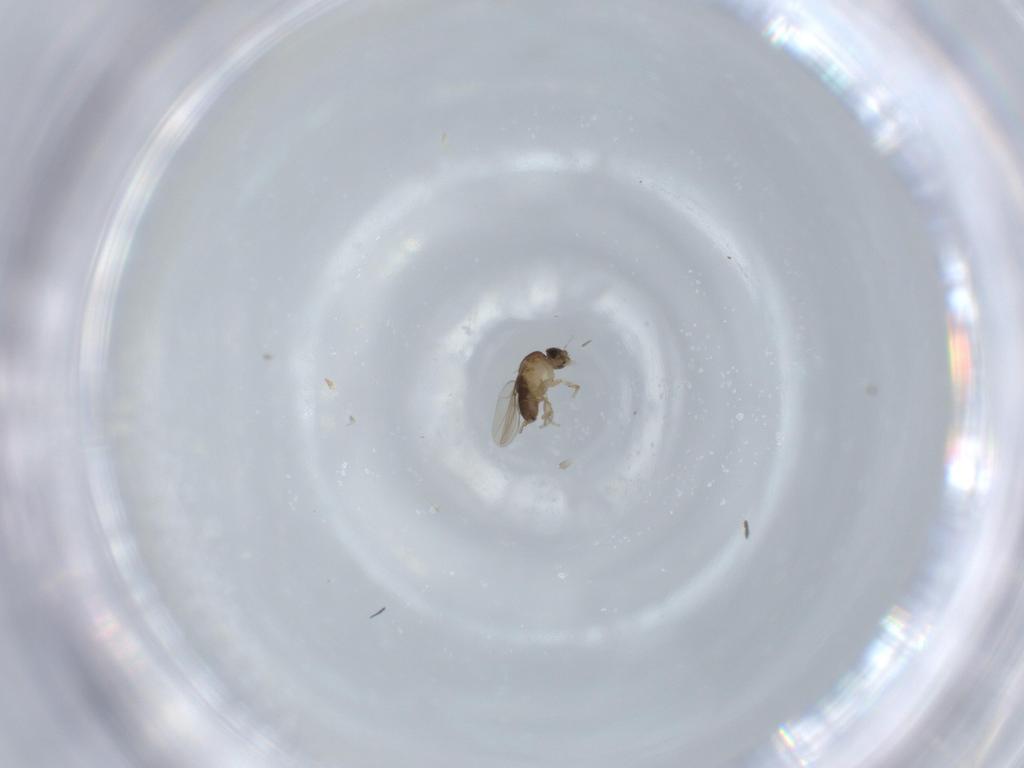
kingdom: Animalia
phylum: Arthropoda
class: Insecta
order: Diptera
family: Phoridae
